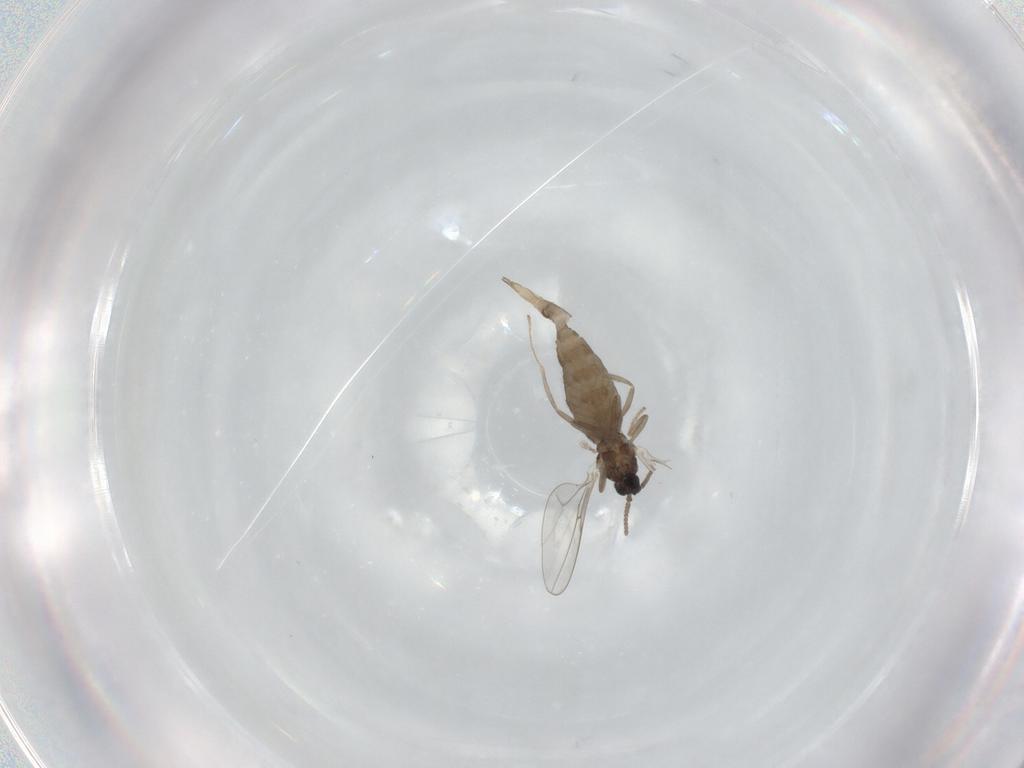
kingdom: Animalia
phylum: Arthropoda
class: Insecta
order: Diptera
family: Cecidomyiidae
